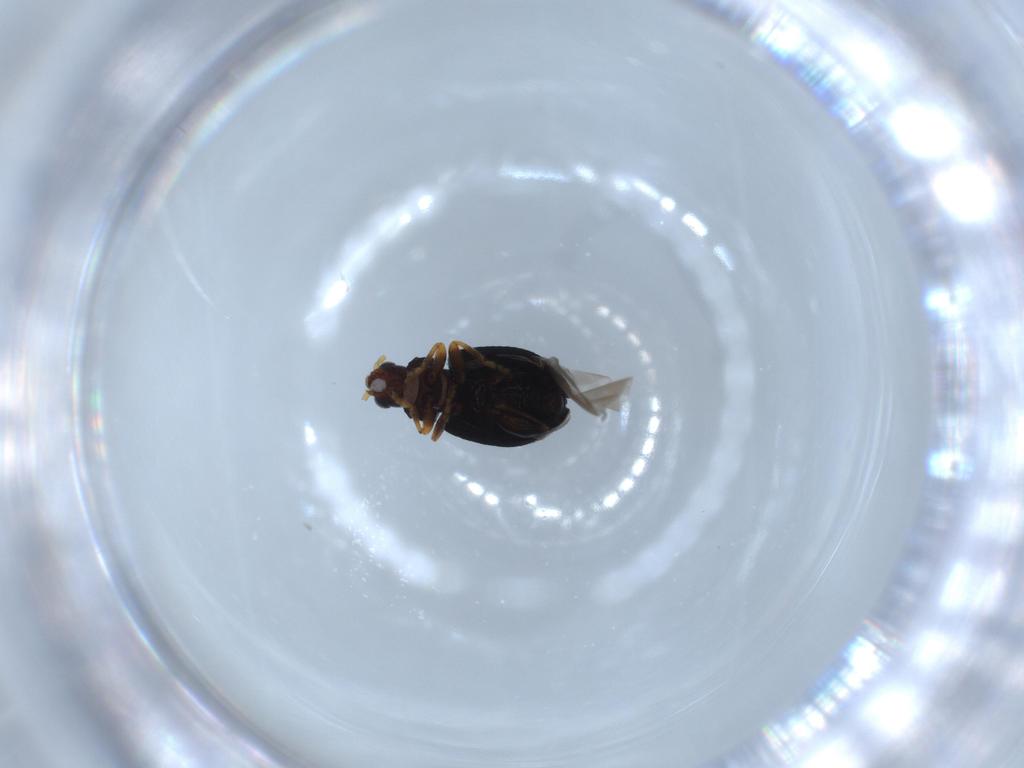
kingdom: Animalia
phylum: Arthropoda
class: Insecta
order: Coleoptera
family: Chrysomelidae
